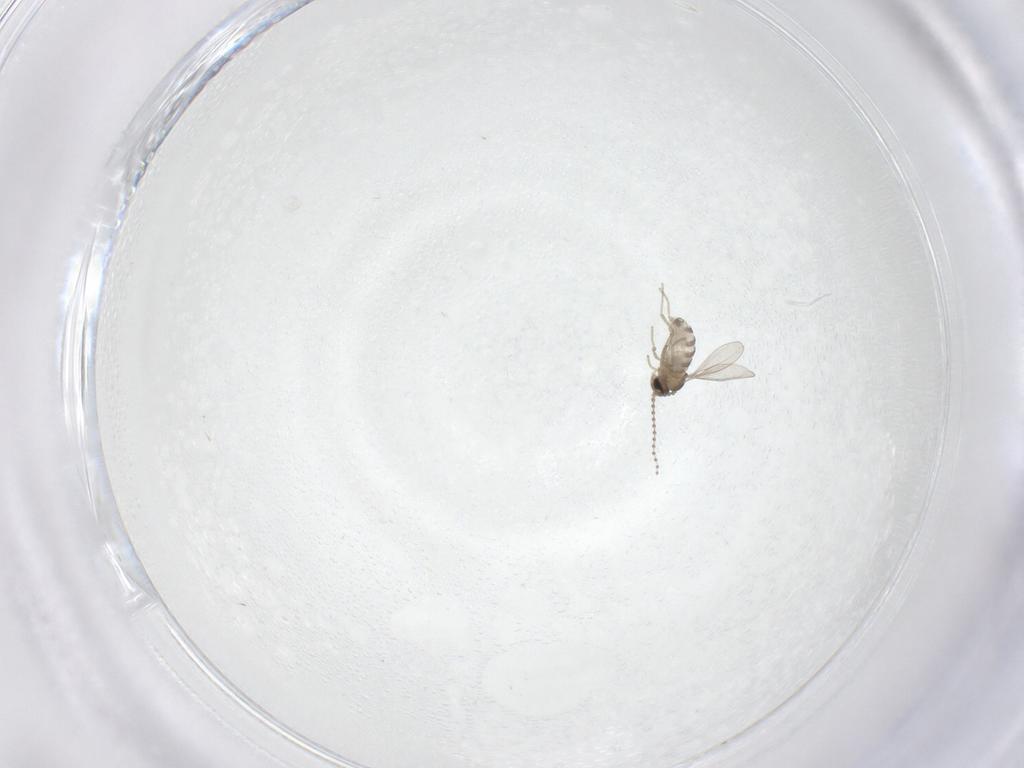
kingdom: Animalia
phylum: Arthropoda
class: Insecta
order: Diptera
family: Cecidomyiidae
